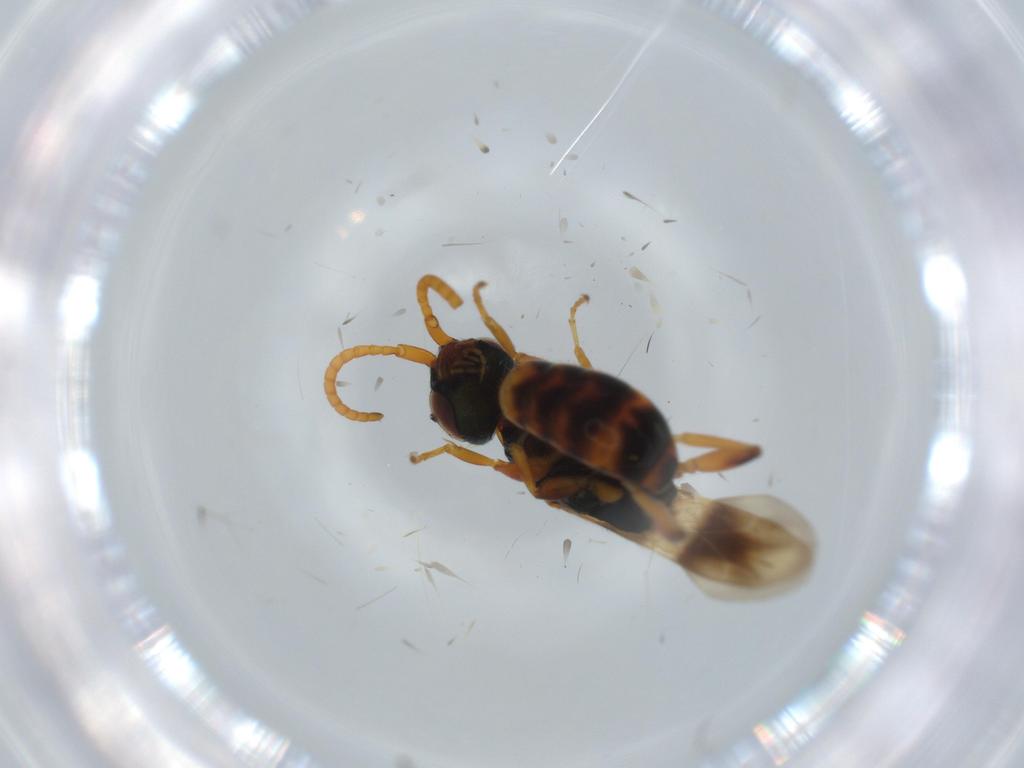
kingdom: Animalia
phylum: Arthropoda
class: Insecta
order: Hymenoptera
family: Bethylidae
